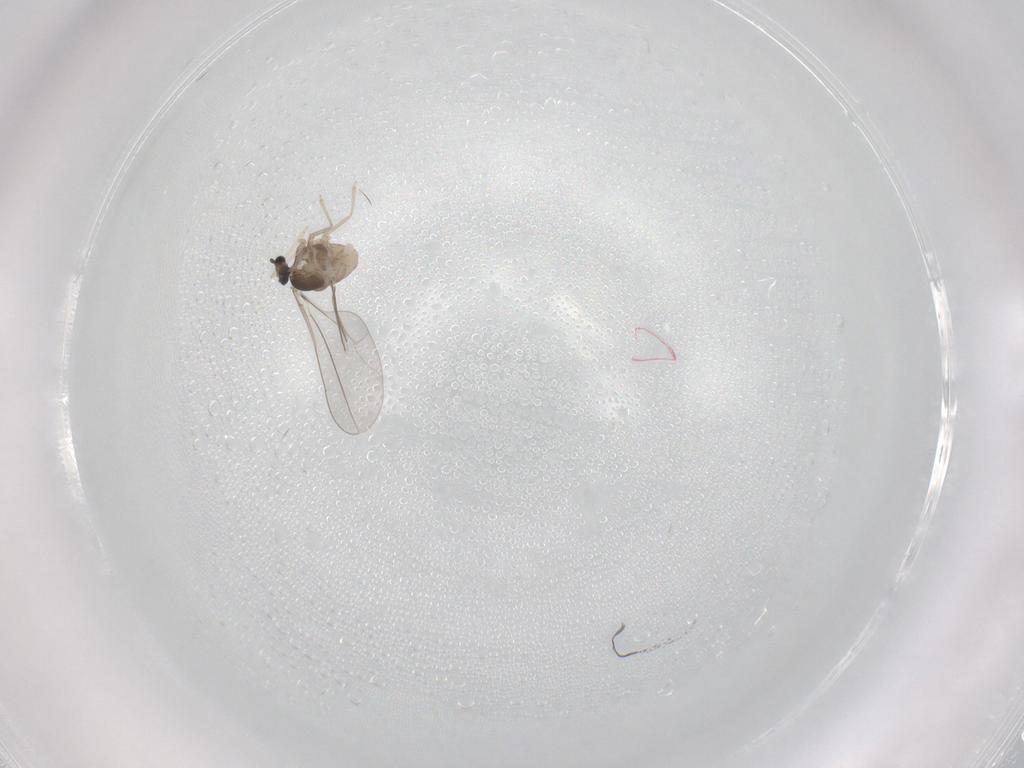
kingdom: Animalia
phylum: Arthropoda
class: Insecta
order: Diptera
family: Cecidomyiidae
